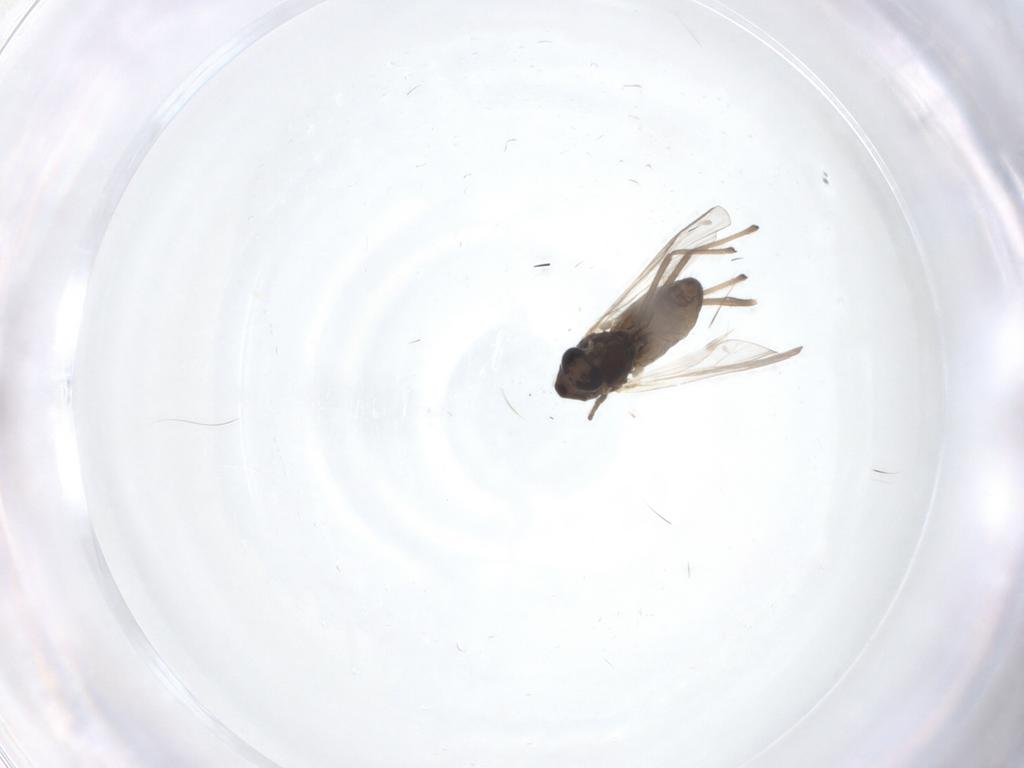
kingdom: Animalia
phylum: Arthropoda
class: Insecta
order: Diptera
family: Chironomidae
